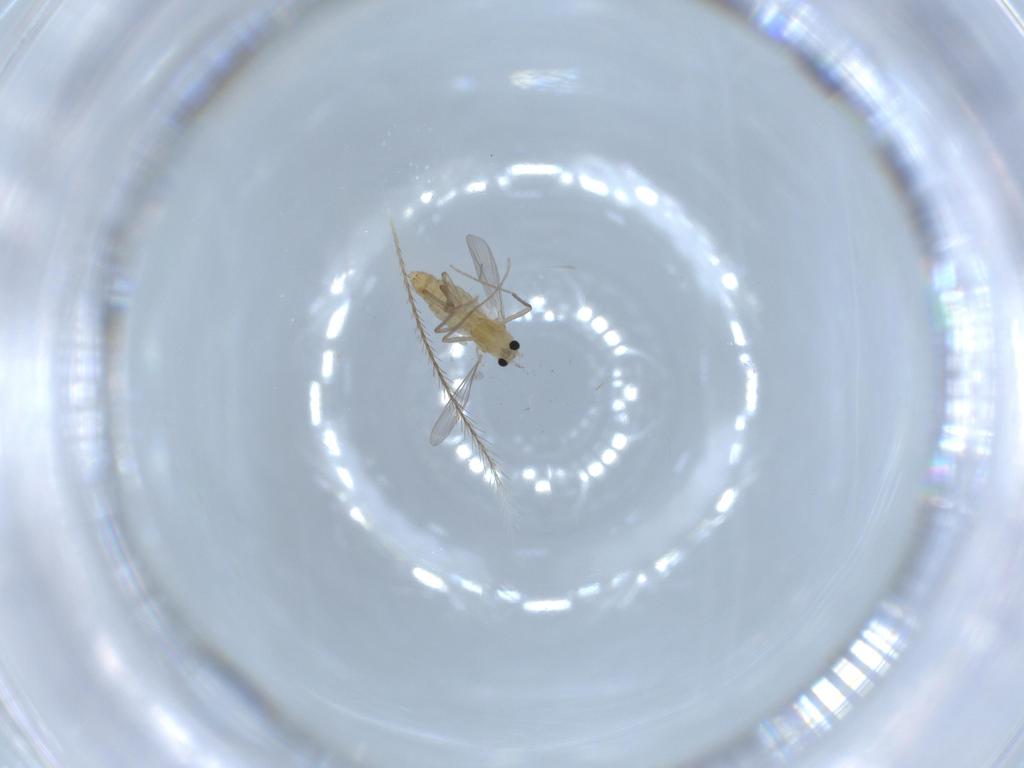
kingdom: Animalia
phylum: Arthropoda
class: Insecta
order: Diptera
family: Chironomidae
